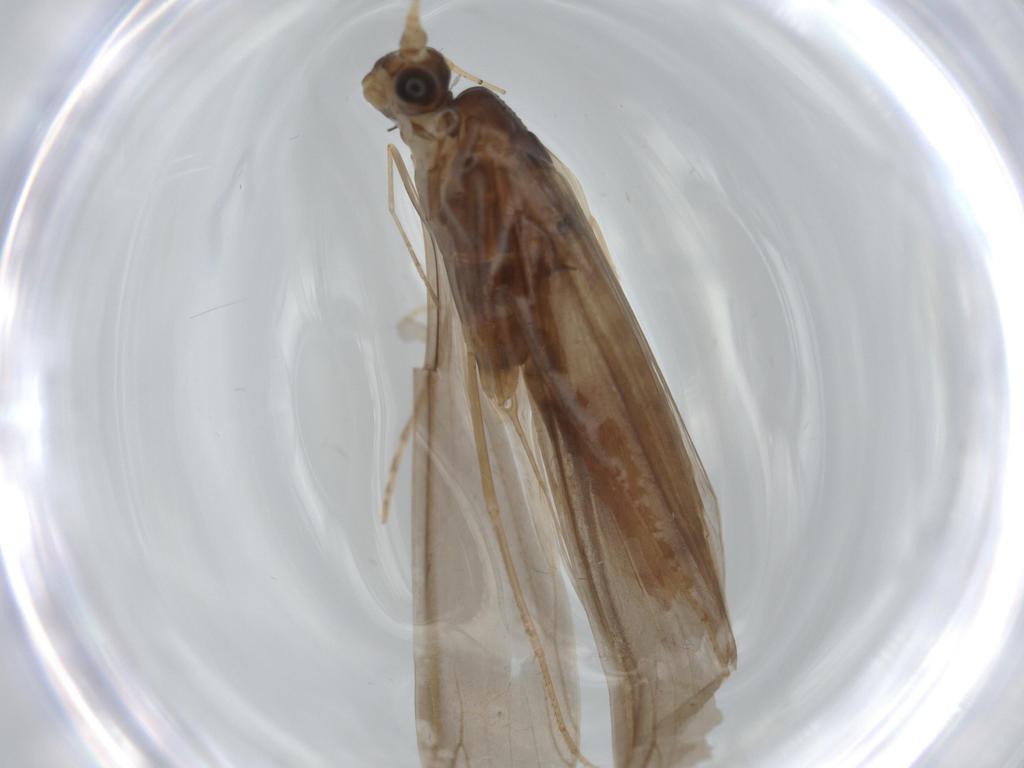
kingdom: Animalia
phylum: Arthropoda
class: Insecta
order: Trichoptera
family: Leptoceridae
